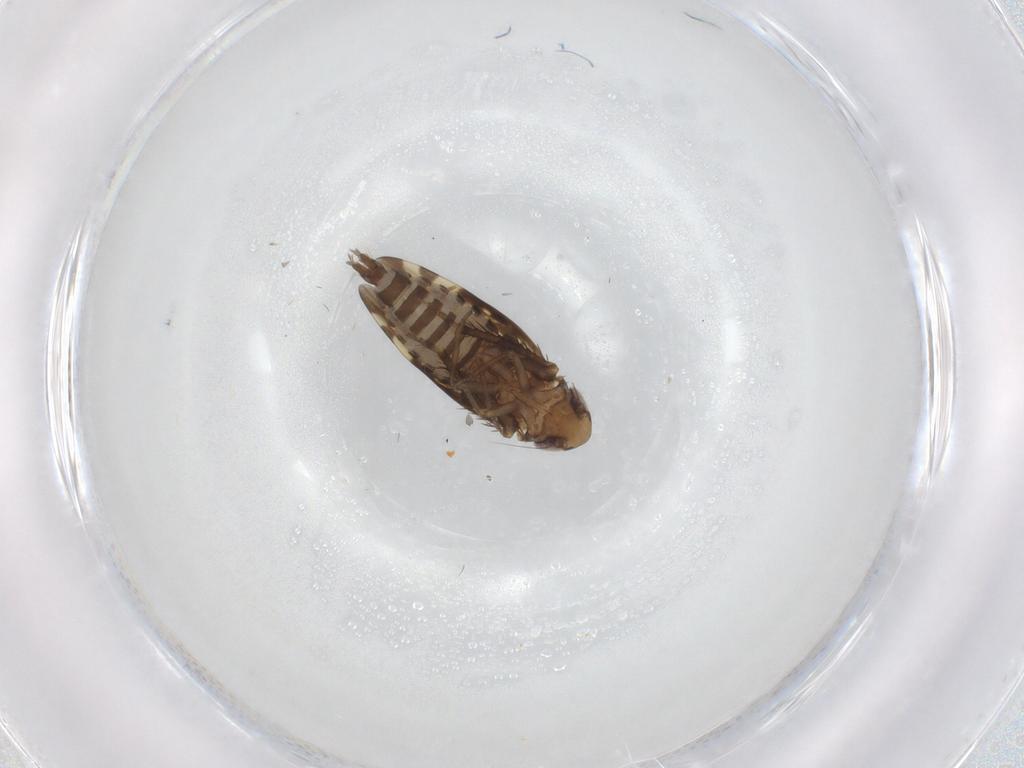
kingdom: Animalia
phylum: Arthropoda
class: Insecta
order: Hemiptera
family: Cicadellidae
